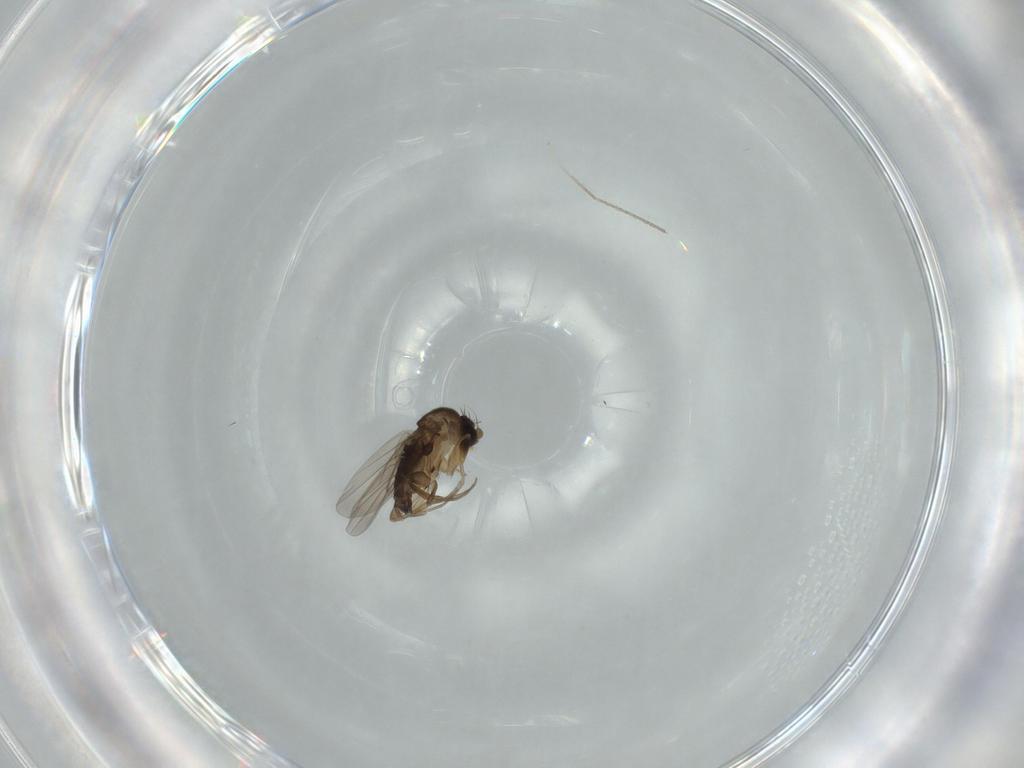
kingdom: Animalia
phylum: Arthropoda
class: Insecta
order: Diptera
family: Phoridae
